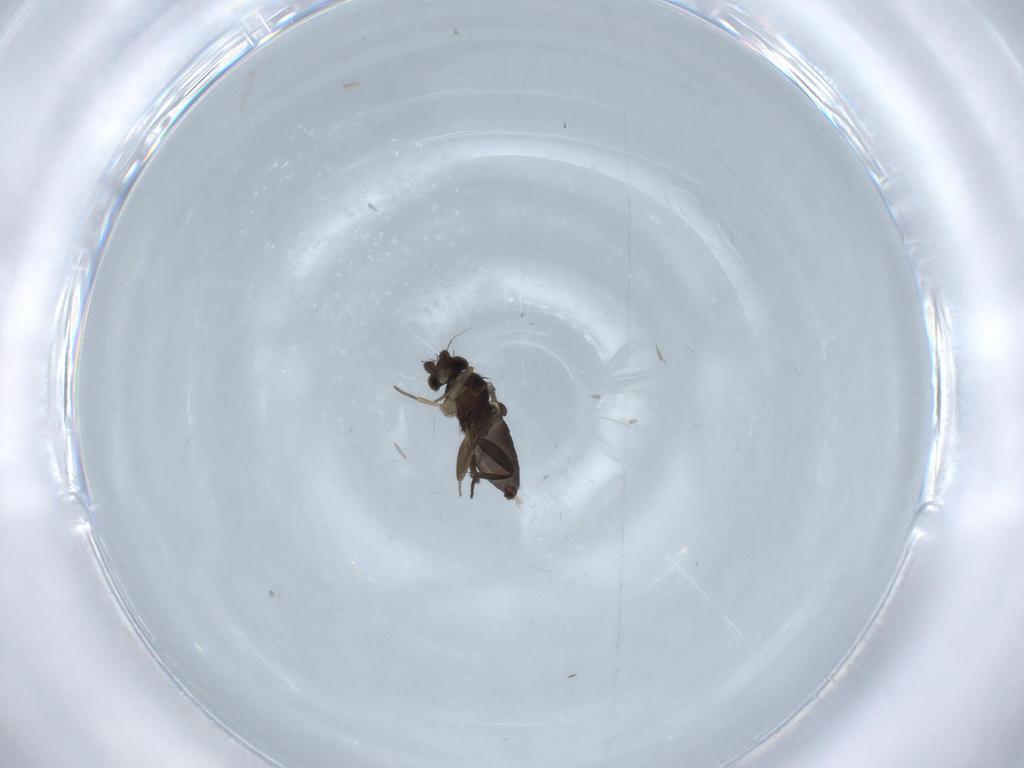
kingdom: Animalia
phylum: Arthropoda
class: Insecta
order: Diptera
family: Phoridae
